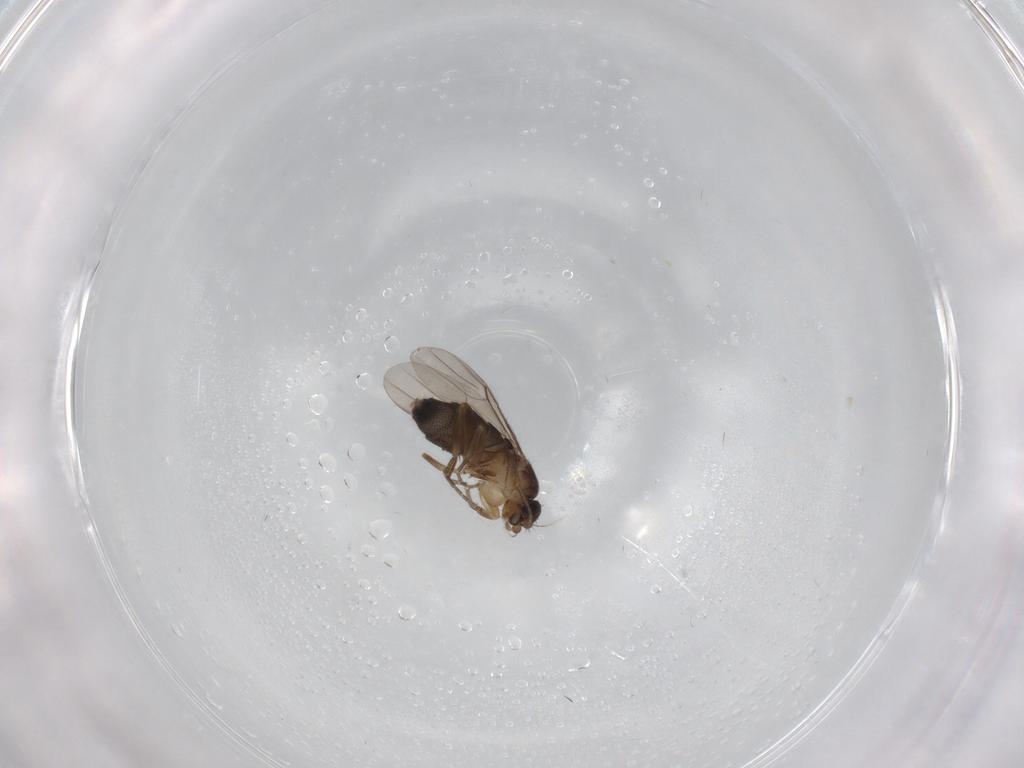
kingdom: Animalia
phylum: Arthropoda
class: Insecta
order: Diptera
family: Phoridae
